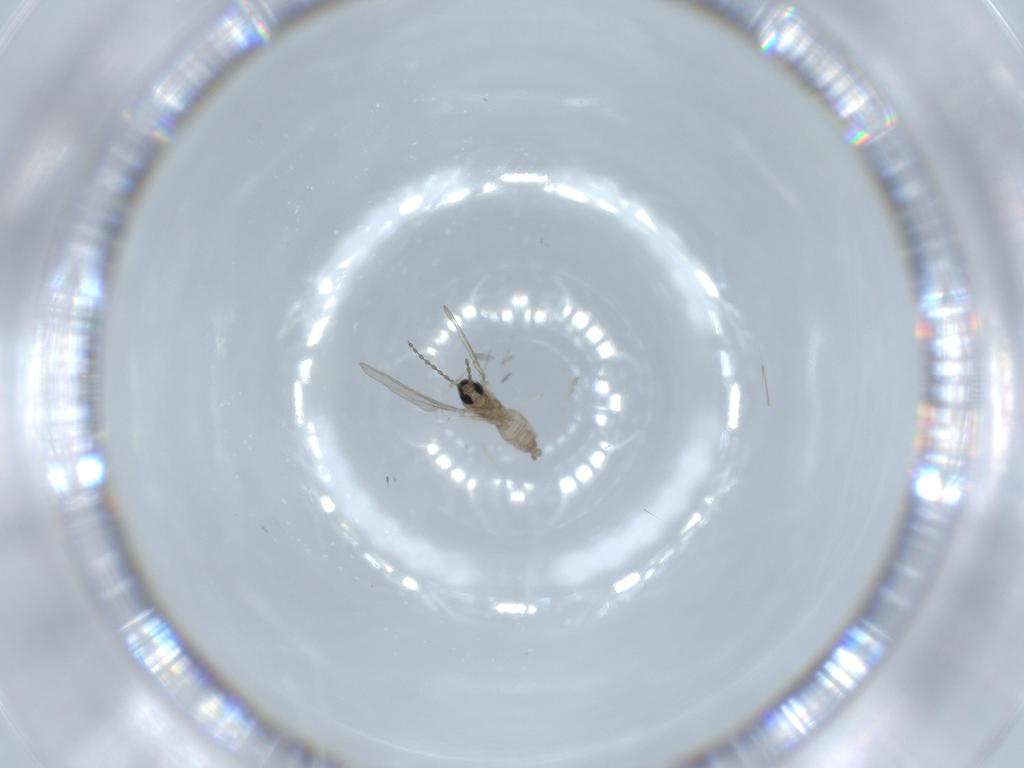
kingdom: Animalia
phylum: Arthropoda
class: Insecta
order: Diptera
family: Cecidomyiidae
